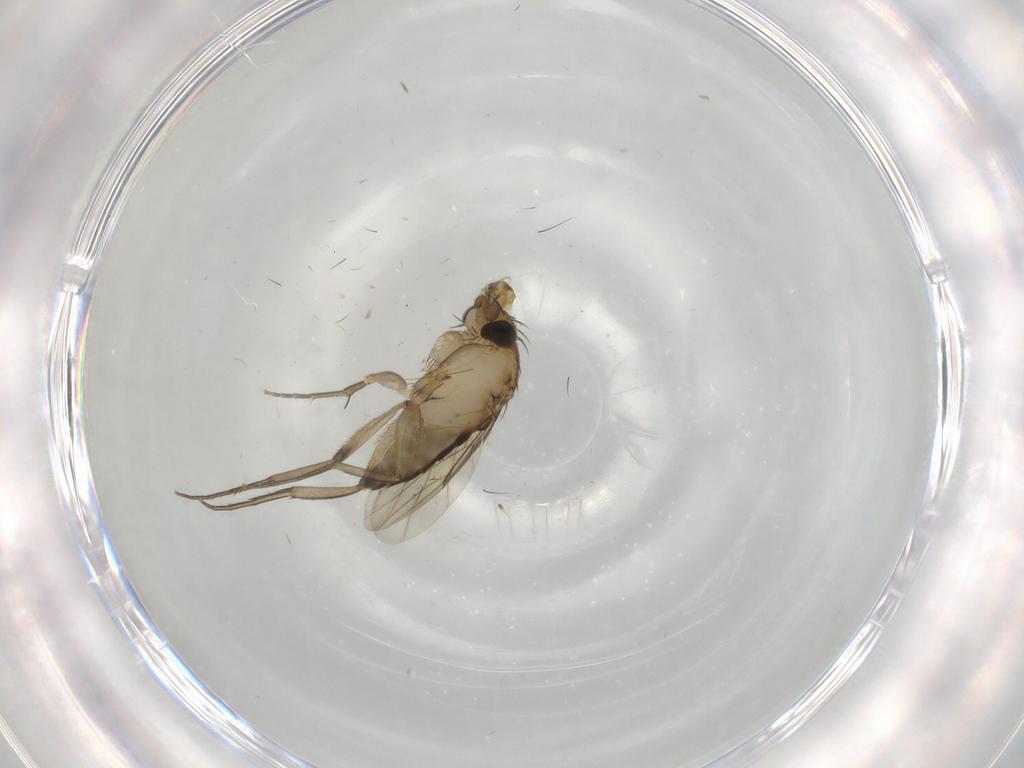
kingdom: Animalia
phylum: Arthropoda
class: Insecta
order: Diptera
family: Cecidomyiidae
